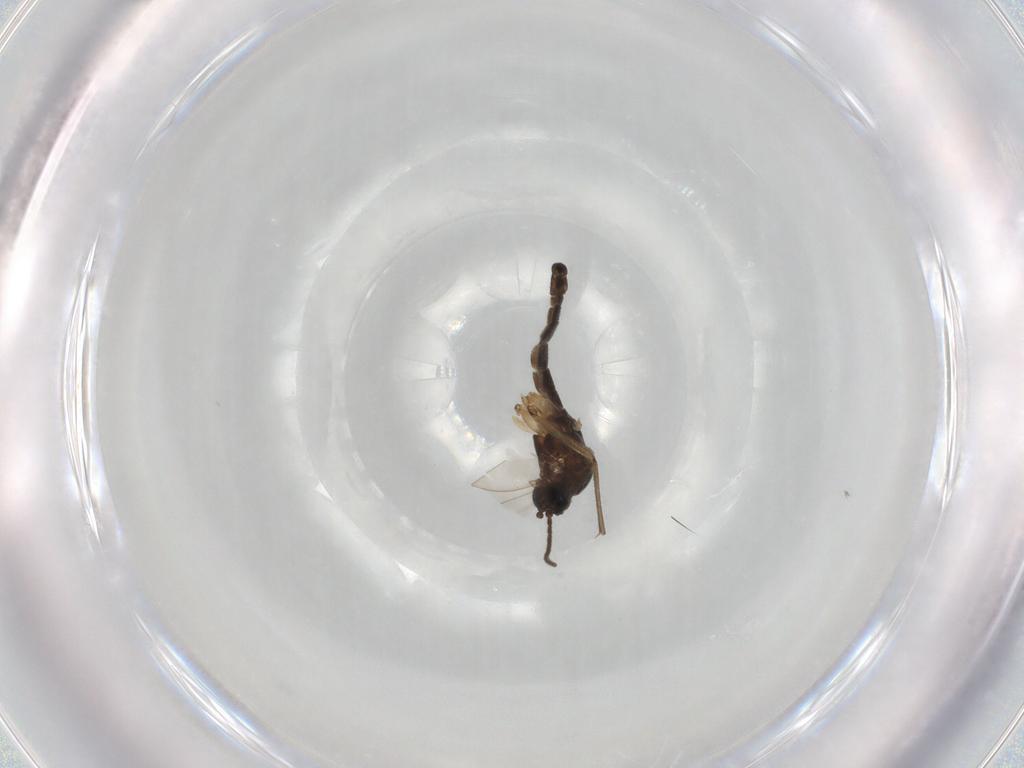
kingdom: Animalia
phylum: Arthropoda
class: Insecta
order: Diptera
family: Sciaridae
